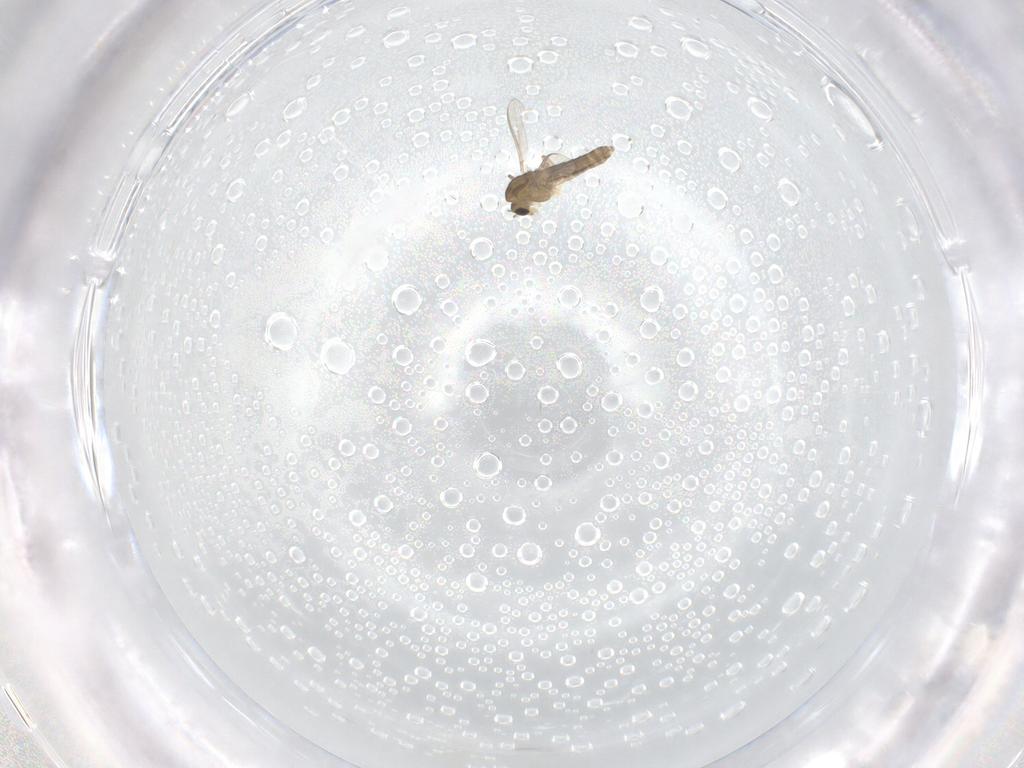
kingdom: Animalia
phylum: Arthropoda
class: Insecta
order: Diptera
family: Chironomidae
